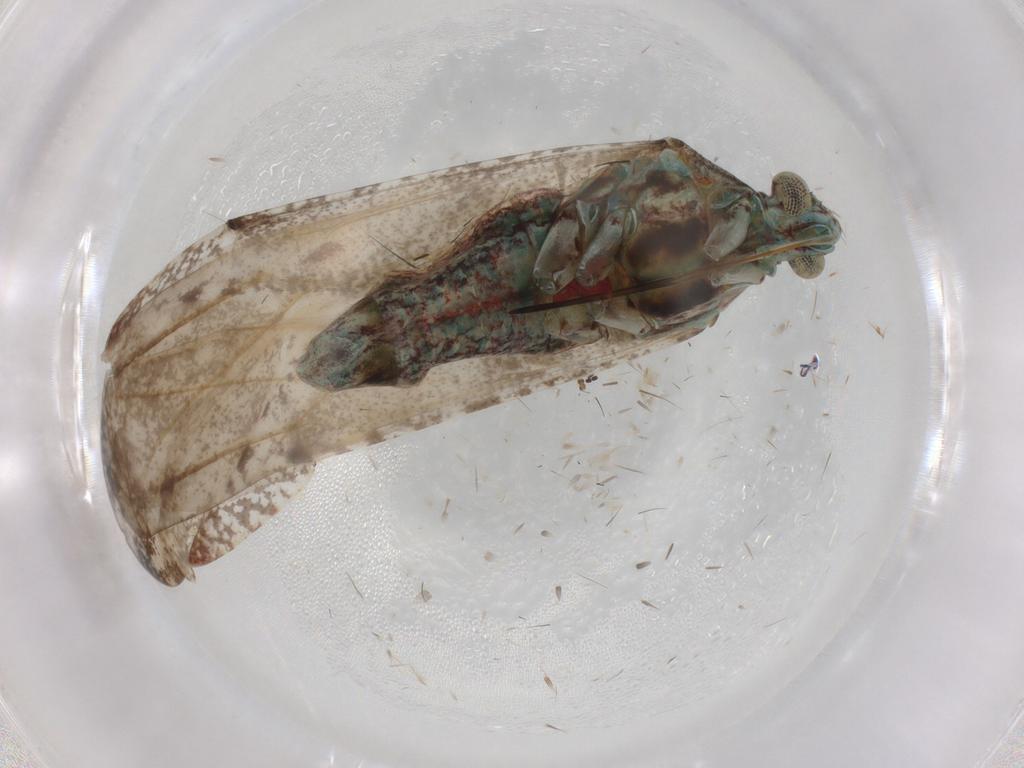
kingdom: Animalia
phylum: Arthropoda
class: Insecta
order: Hemiptera
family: Miridae
